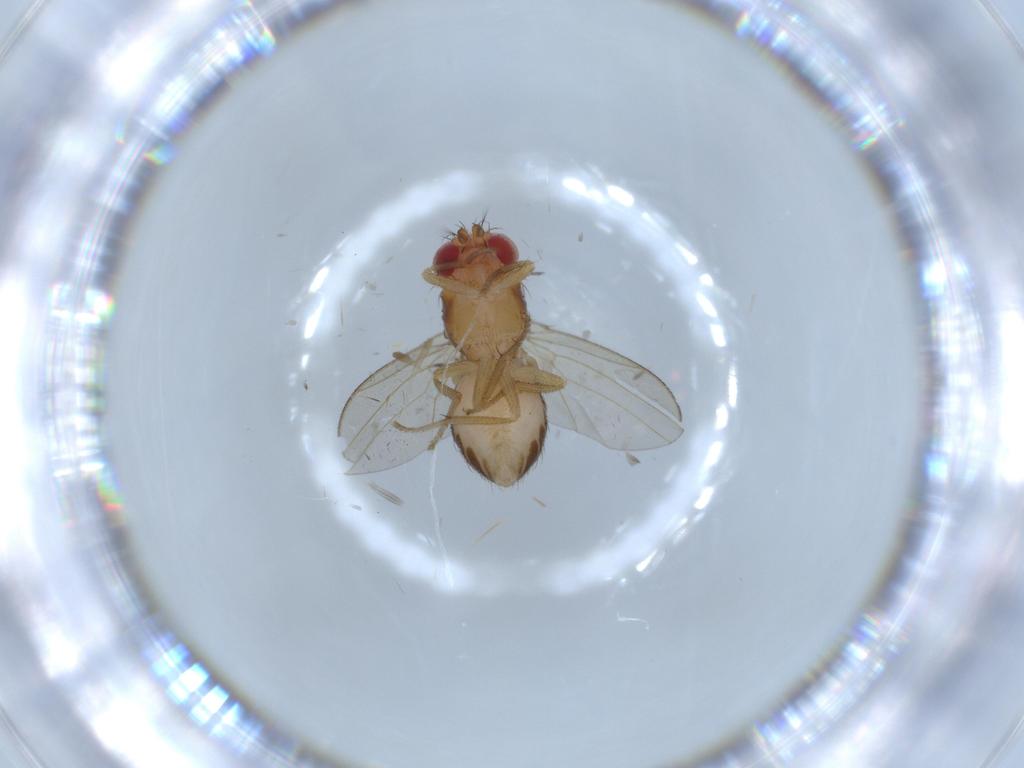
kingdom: Animalia
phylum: Arthropoda
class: Insecta
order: Diptera
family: Drosophilidae
